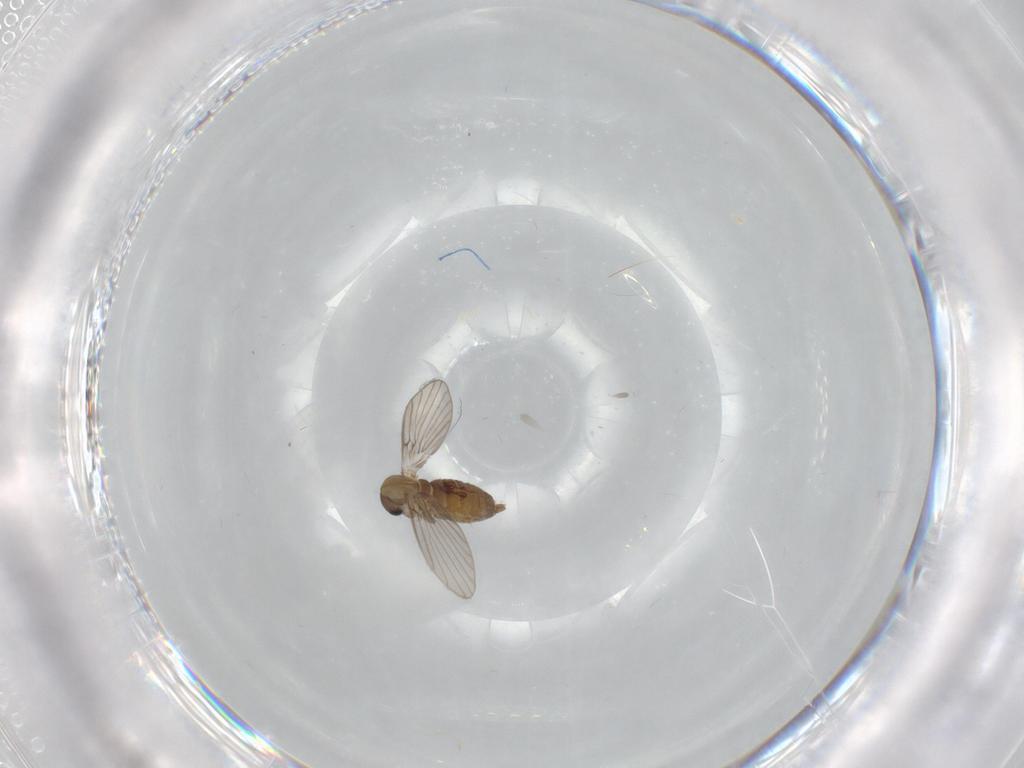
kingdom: Animalia
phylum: Arthropoda
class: Insecta
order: Diptera
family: Psychodidae
